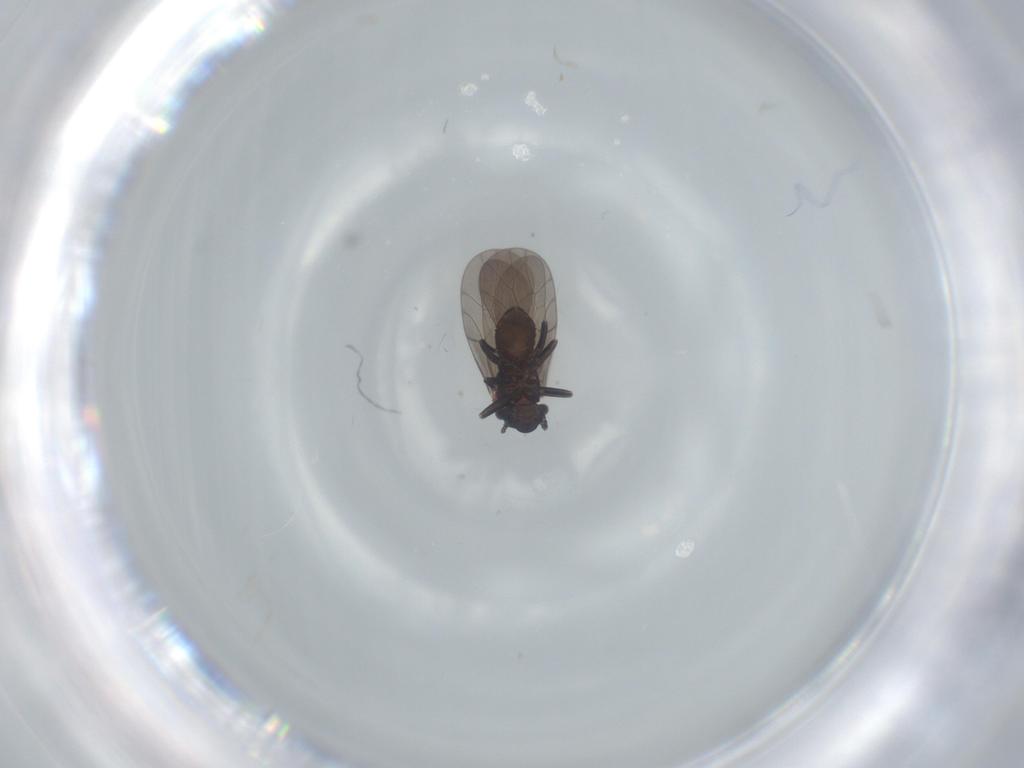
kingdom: Animalia
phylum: Arthropoda
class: Insecta
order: Psocodea
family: Lepidopsocidae
